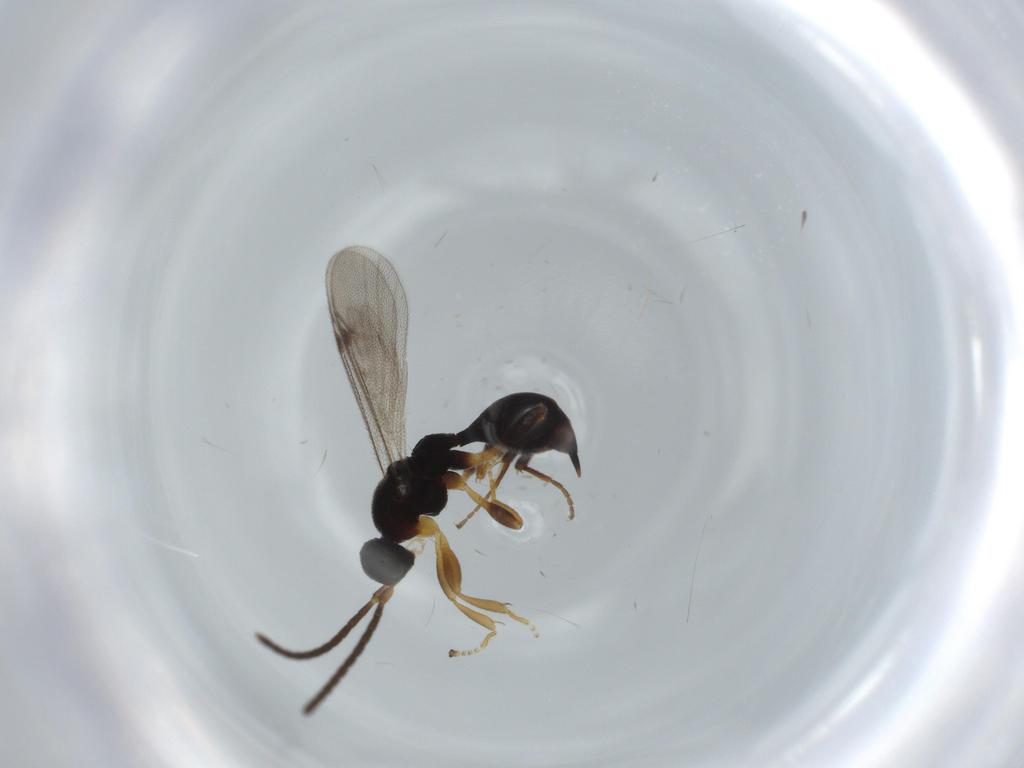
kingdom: Animalia
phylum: Arthropoda
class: Insecta
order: Hymenoptera
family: Proctotrupidae
